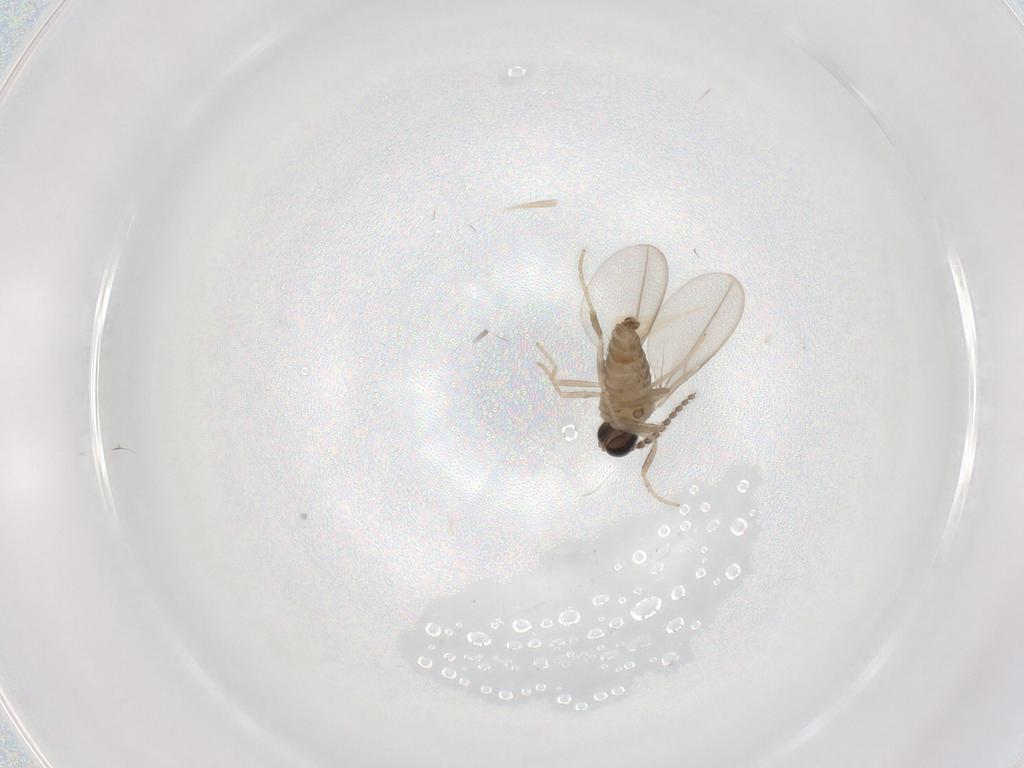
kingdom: Animalia
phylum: Arthropoda
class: Insecta
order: Diptera
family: Cecidomyiidae
